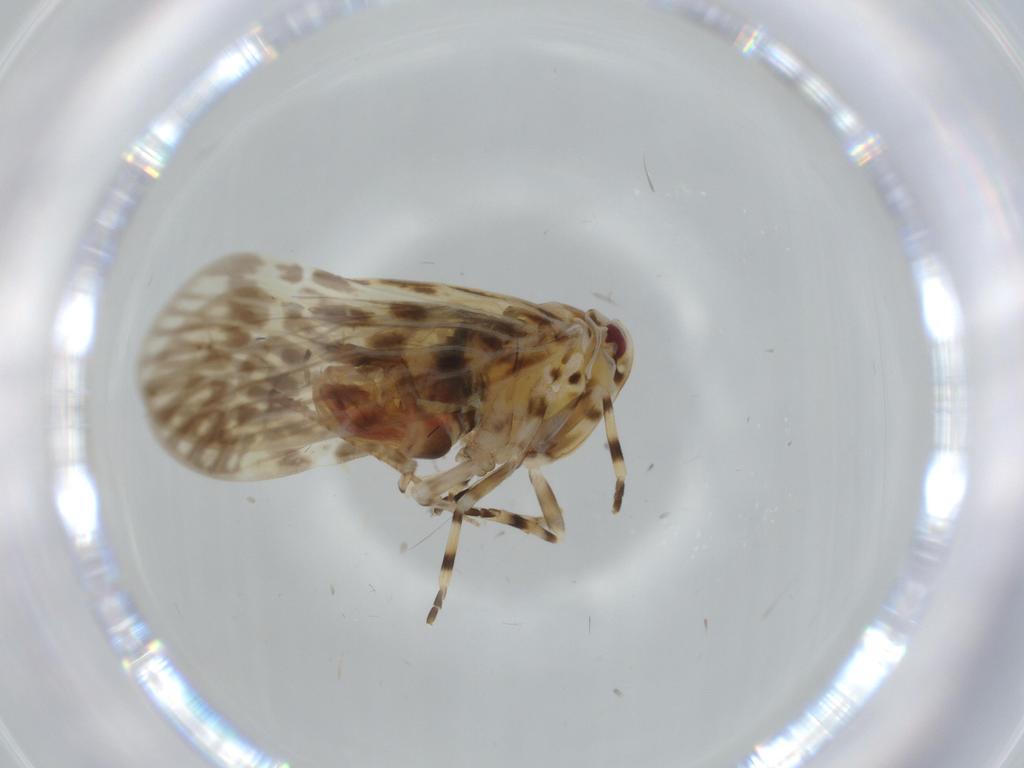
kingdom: Animalia
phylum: Arthropoda
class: Insecta
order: Hemiptera
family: Derbidae
